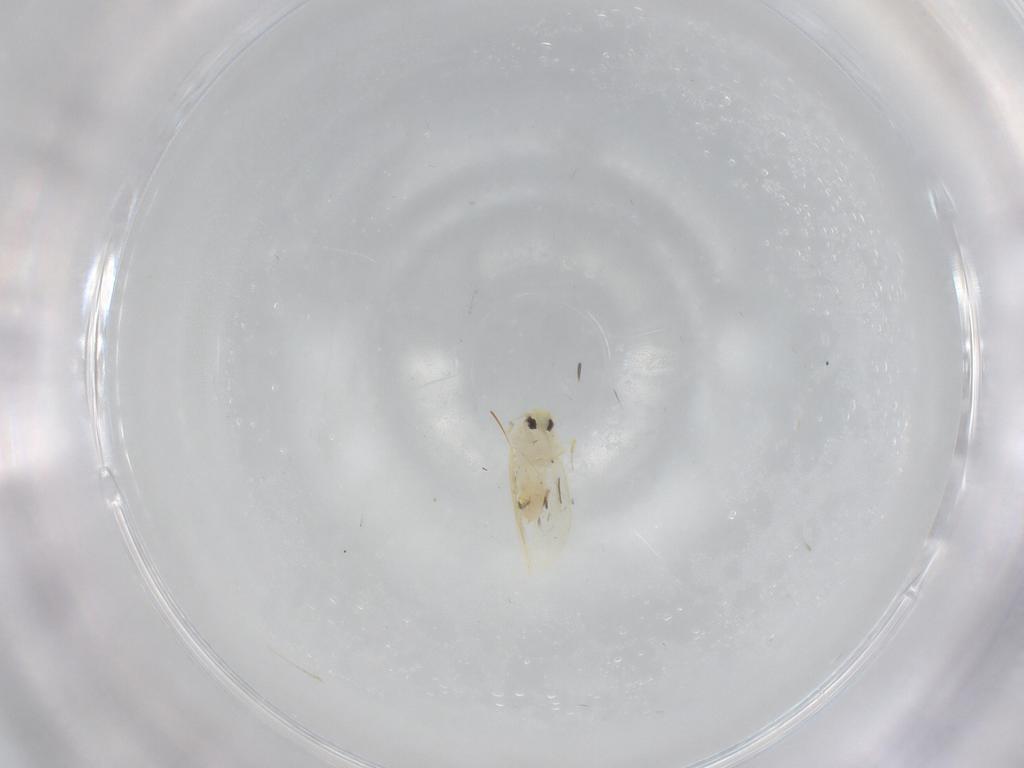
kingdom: Animalia
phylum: Arthropoda
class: Insecta
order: Hemiptera
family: Aleyrodidae
